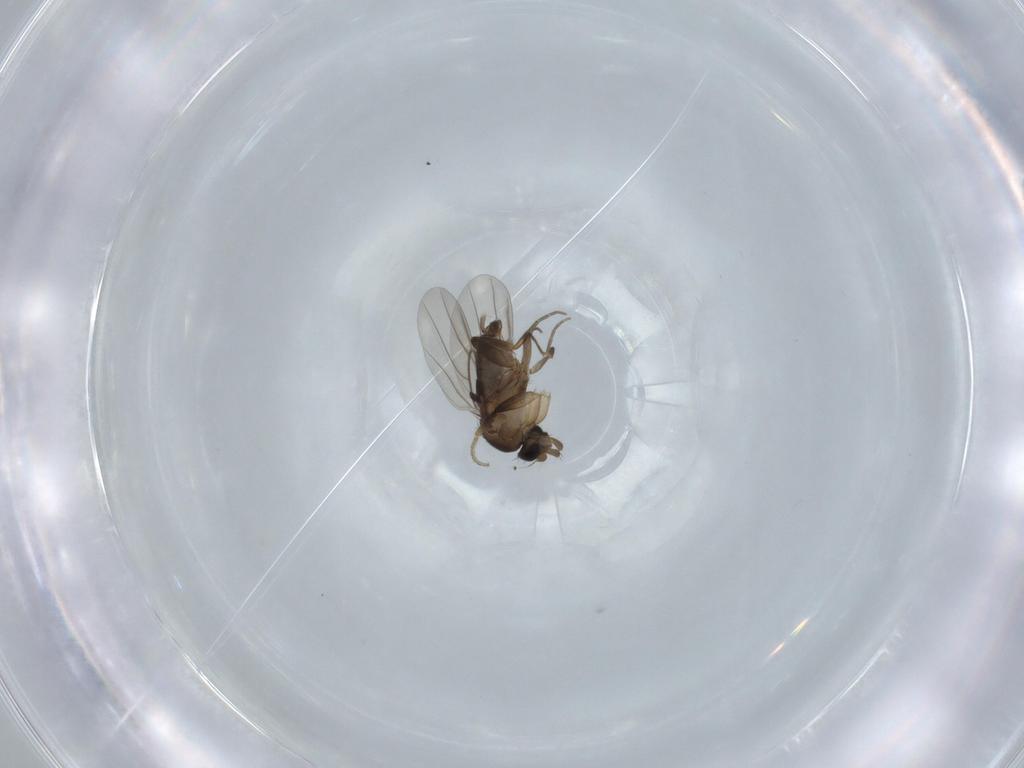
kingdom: Animalia
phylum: Arthropoda
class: Insecta
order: Diptera
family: Phoridae
